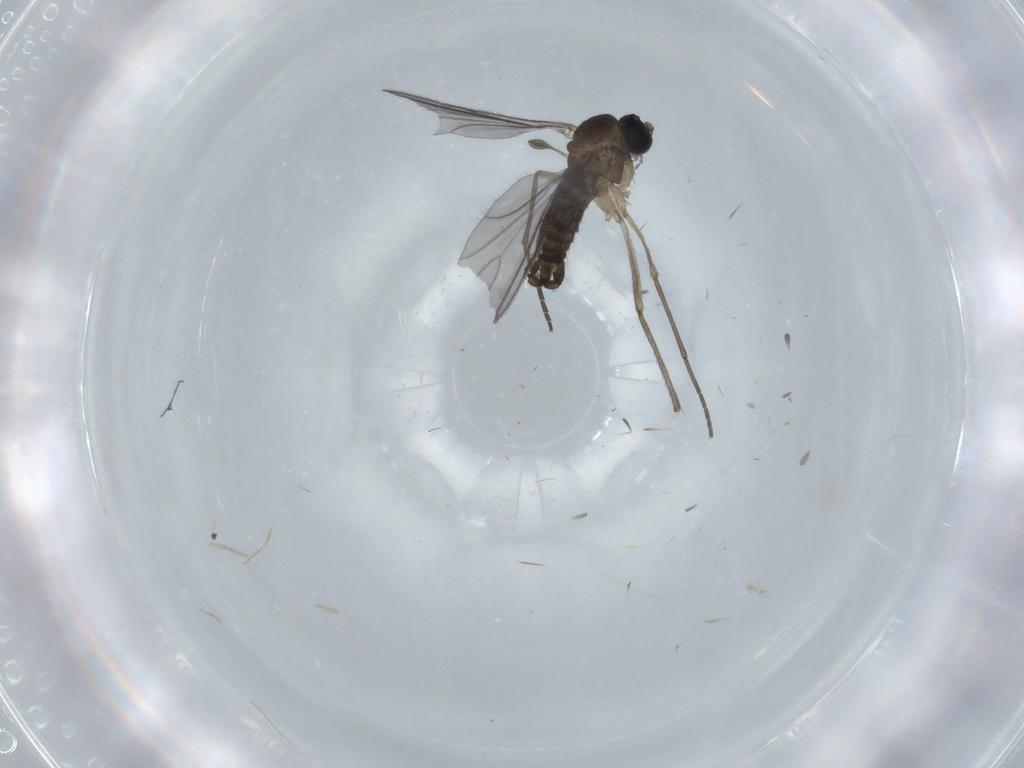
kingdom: Animalia
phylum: Arthropoda
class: Insecta
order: Diptera
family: Sciaridae
